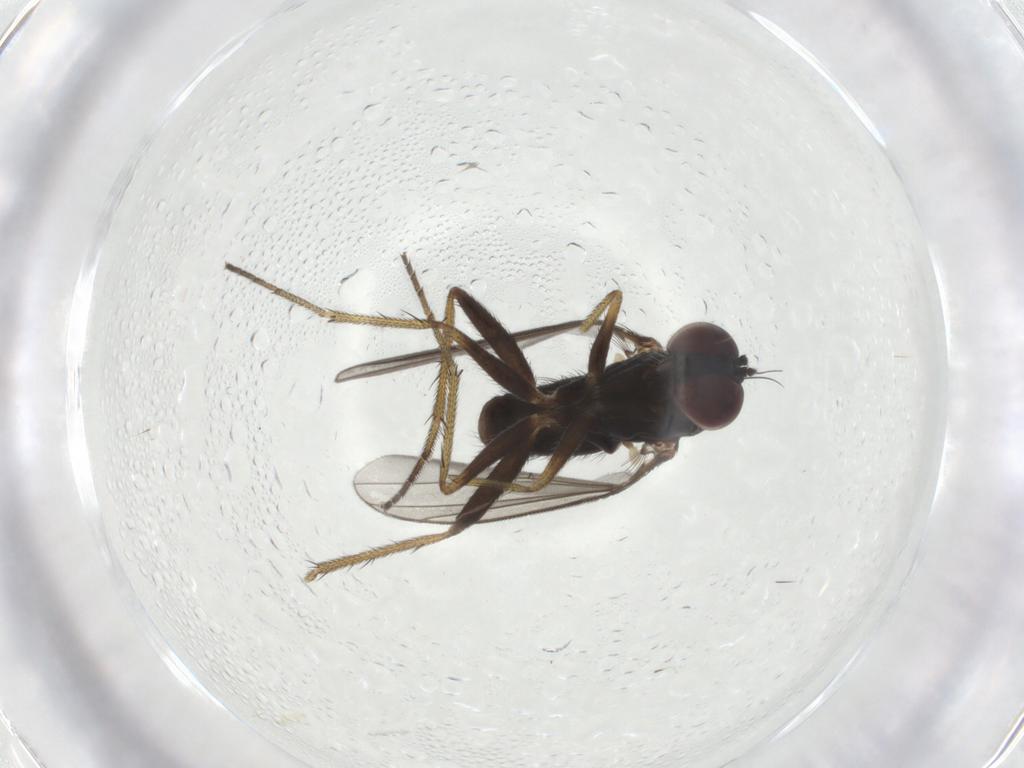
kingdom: Animalia
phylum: Arthropoda
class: Insecta
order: Diptera
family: Dolichopodidae
